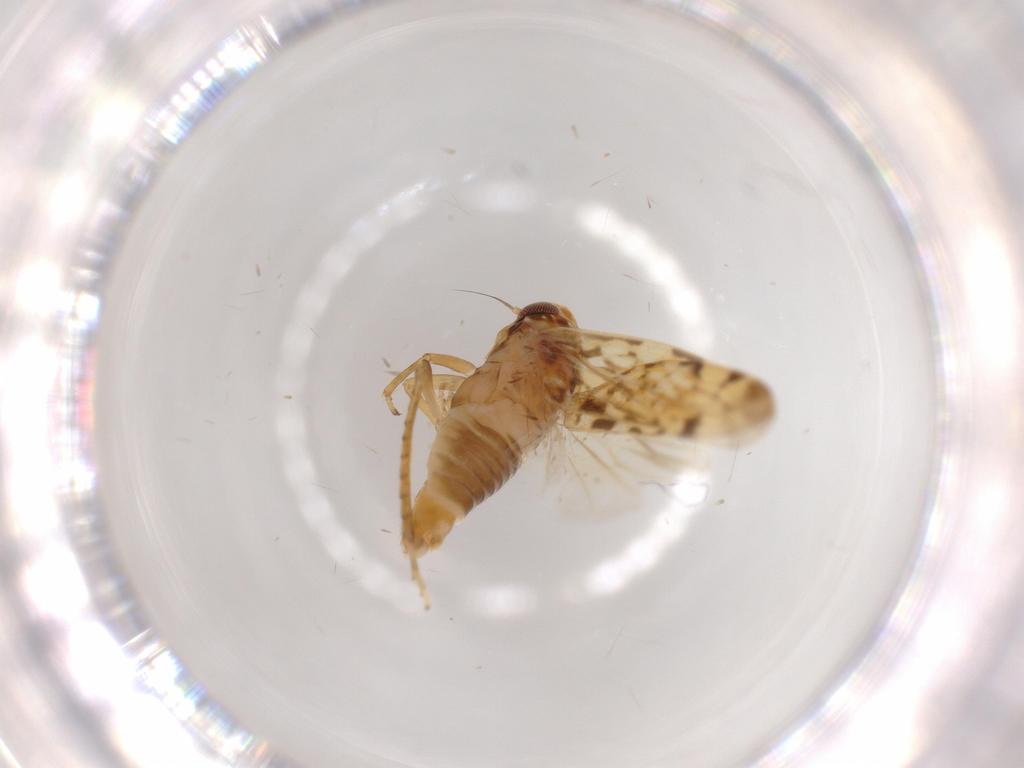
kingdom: Animalia
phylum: Arthropoda
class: Insecta
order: Hemiptera
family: Cicadellidae
